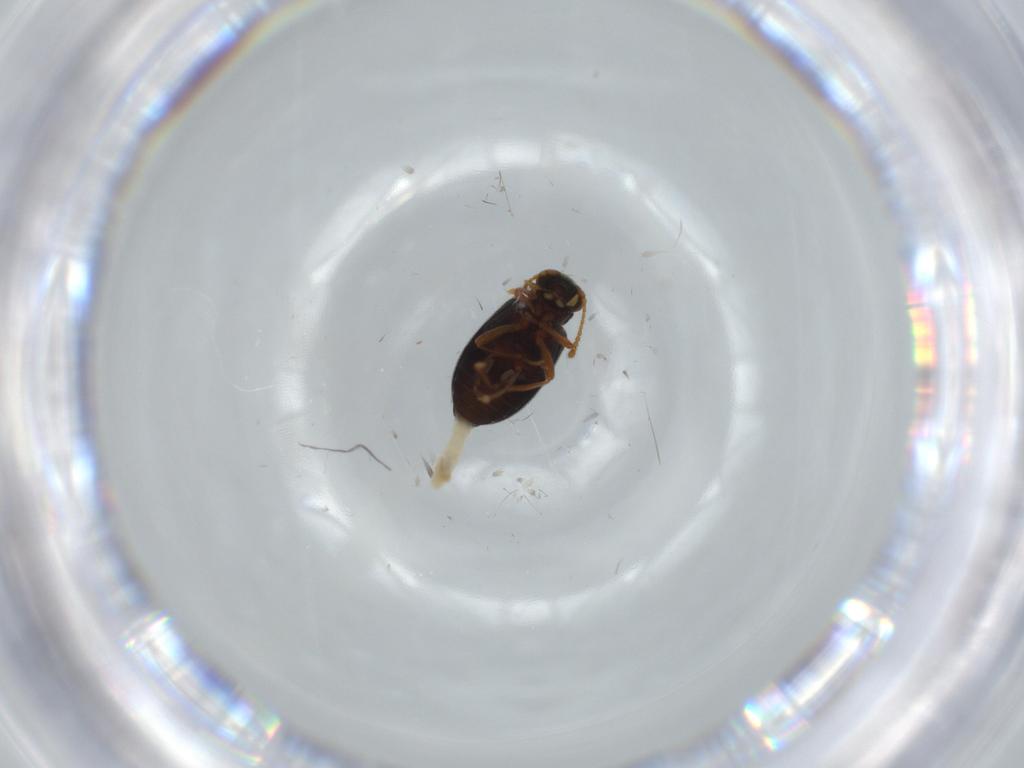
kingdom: Animalia
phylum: Arthropoda
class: Insecta
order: Coleoptera
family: Aderidae
